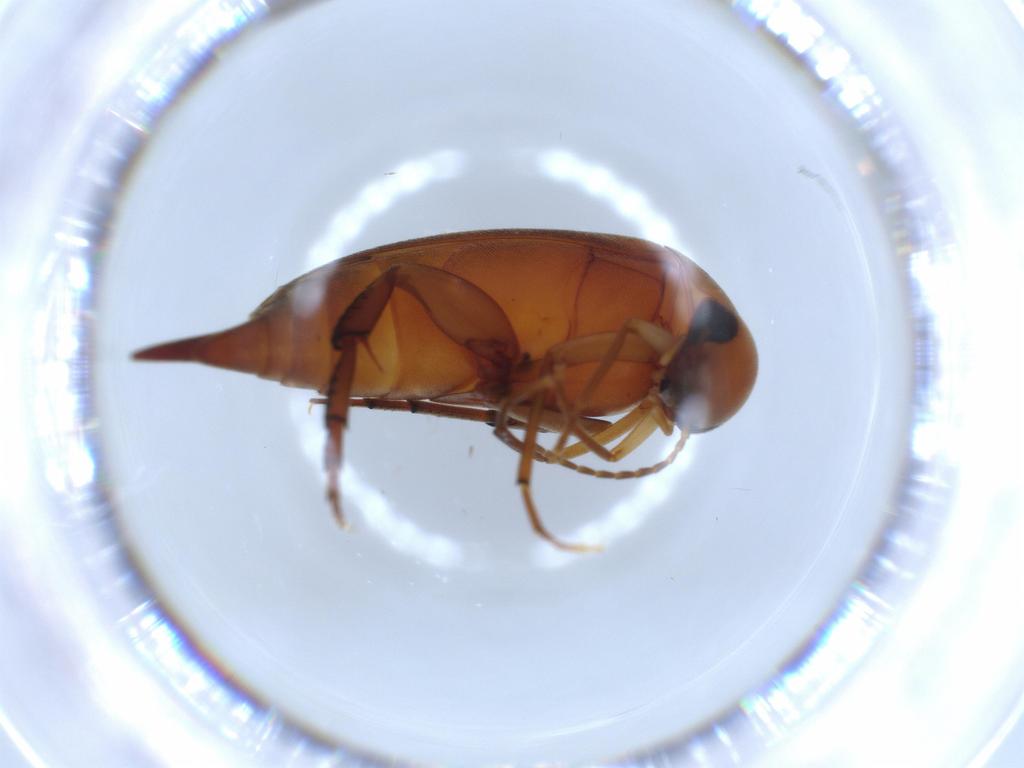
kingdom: Animalia
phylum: Arthropoda
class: Insecta
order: Coleoptera
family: Mordellidae
